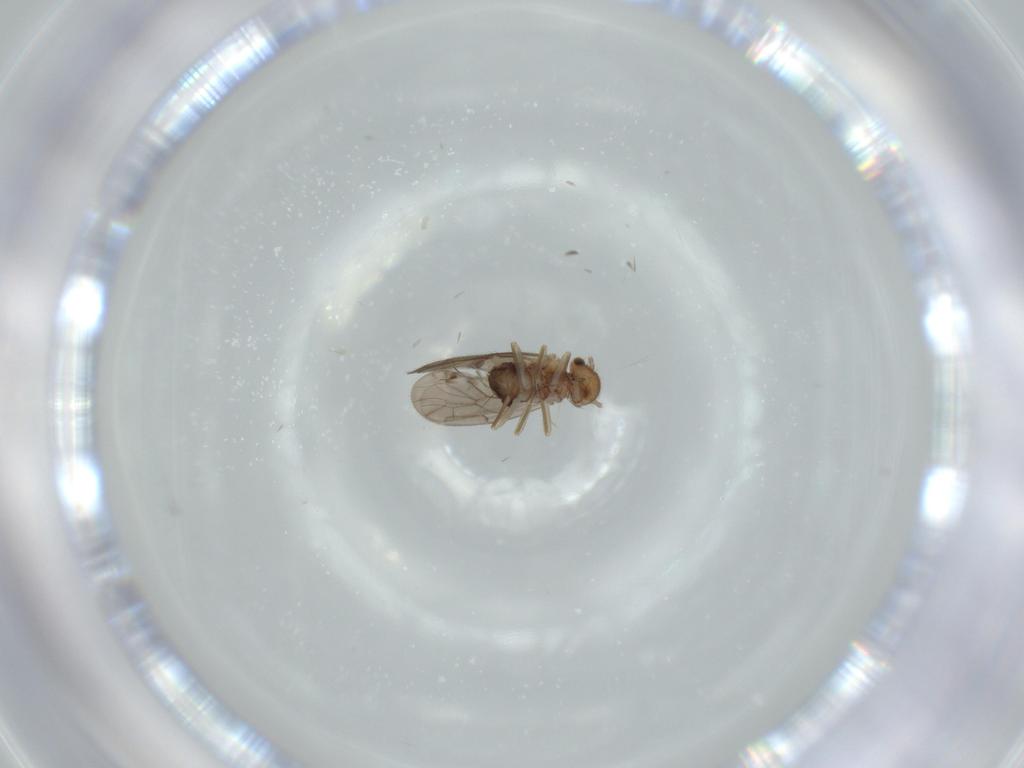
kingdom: Animalia
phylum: Arthropoda
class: Insecta
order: Psocodea
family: Ectopsocidae
